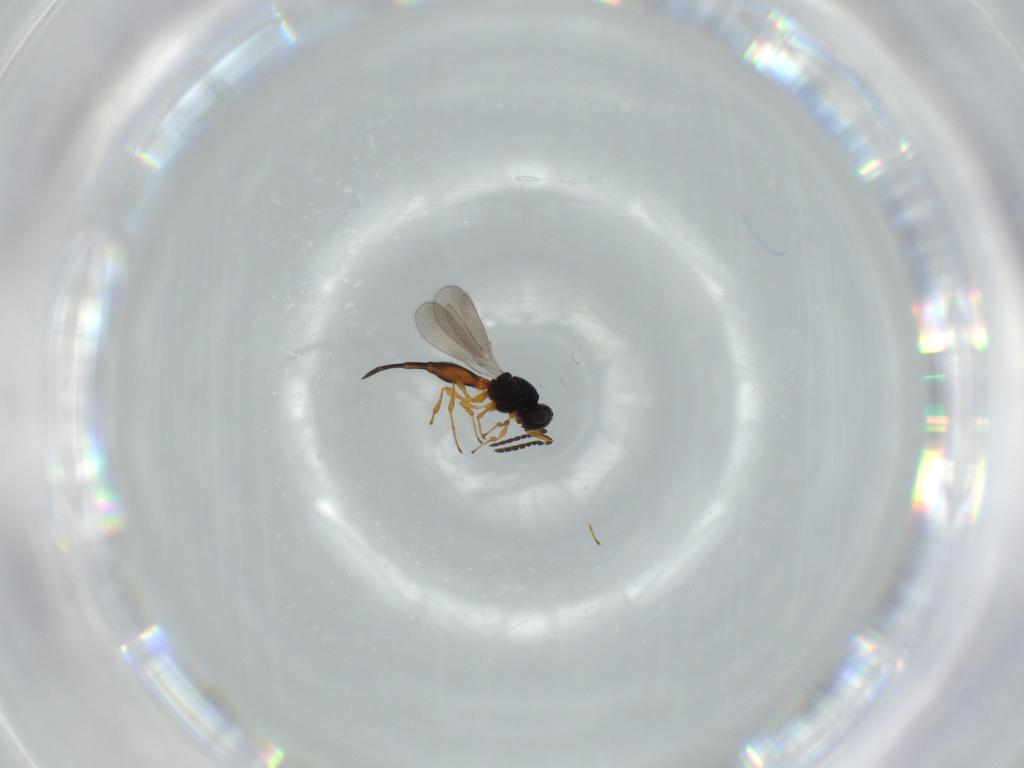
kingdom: Animalia
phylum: Arthropoda
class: Insecta
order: Hymenoptera
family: Platygastridae
